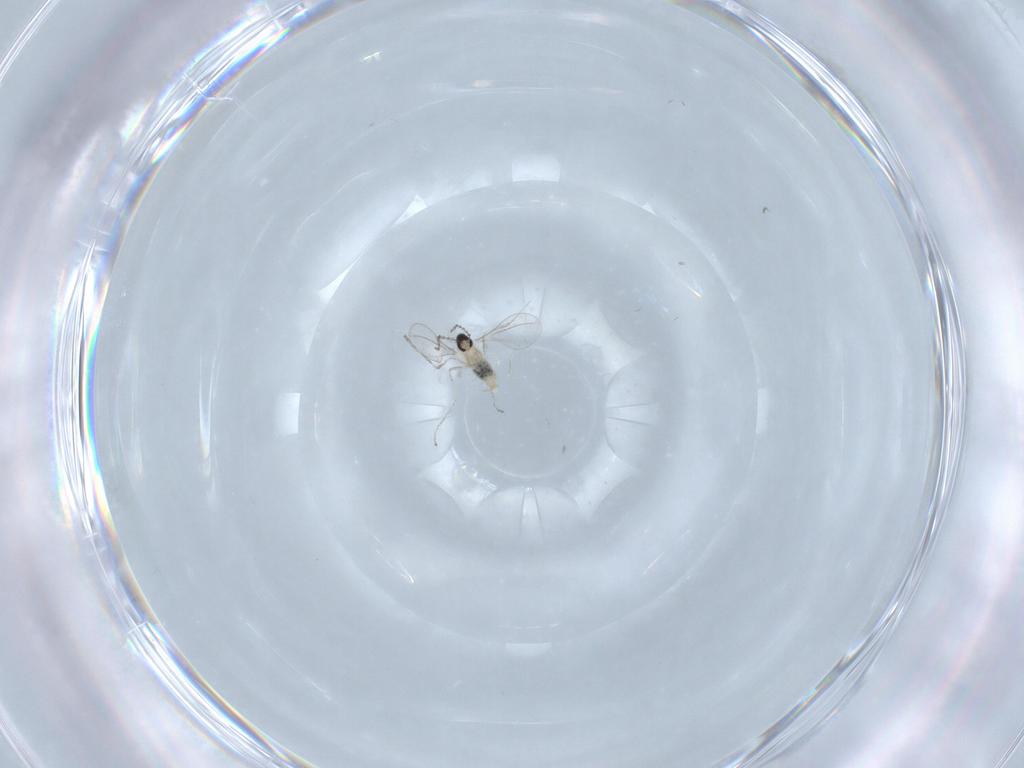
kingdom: Animalia
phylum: Arthropoda
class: Insecta
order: Diptera
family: Cecidomyiidae
